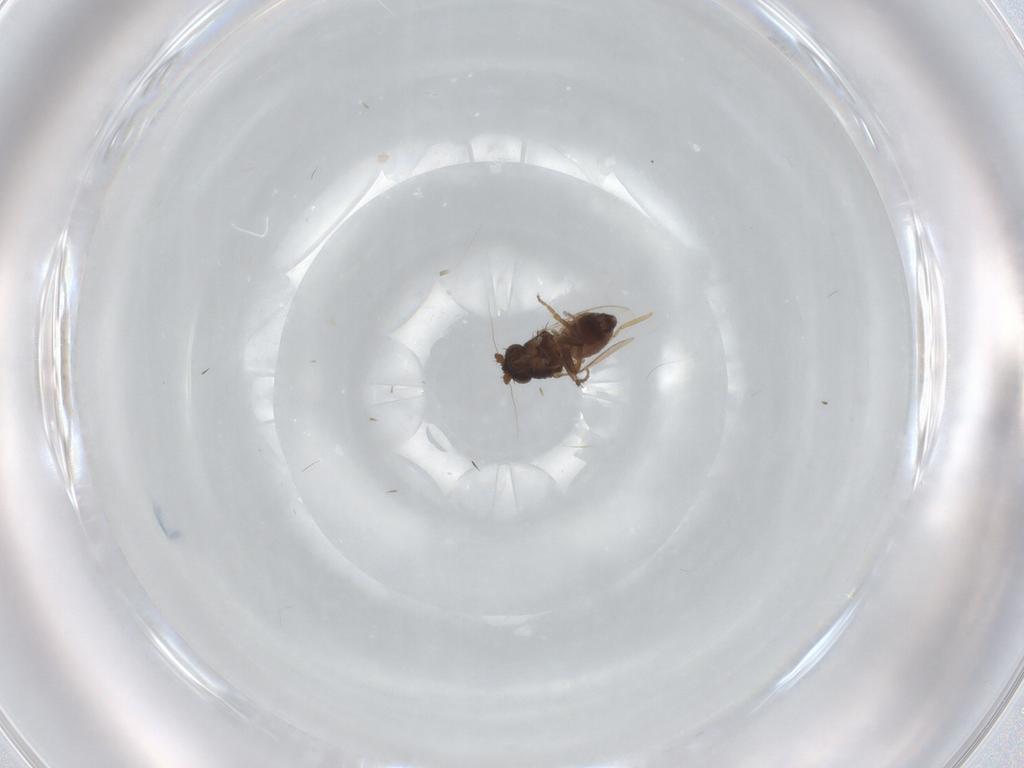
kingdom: Animalia
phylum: Arthropoda
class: Insecta
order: Diptera
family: Sphaeroceridae
